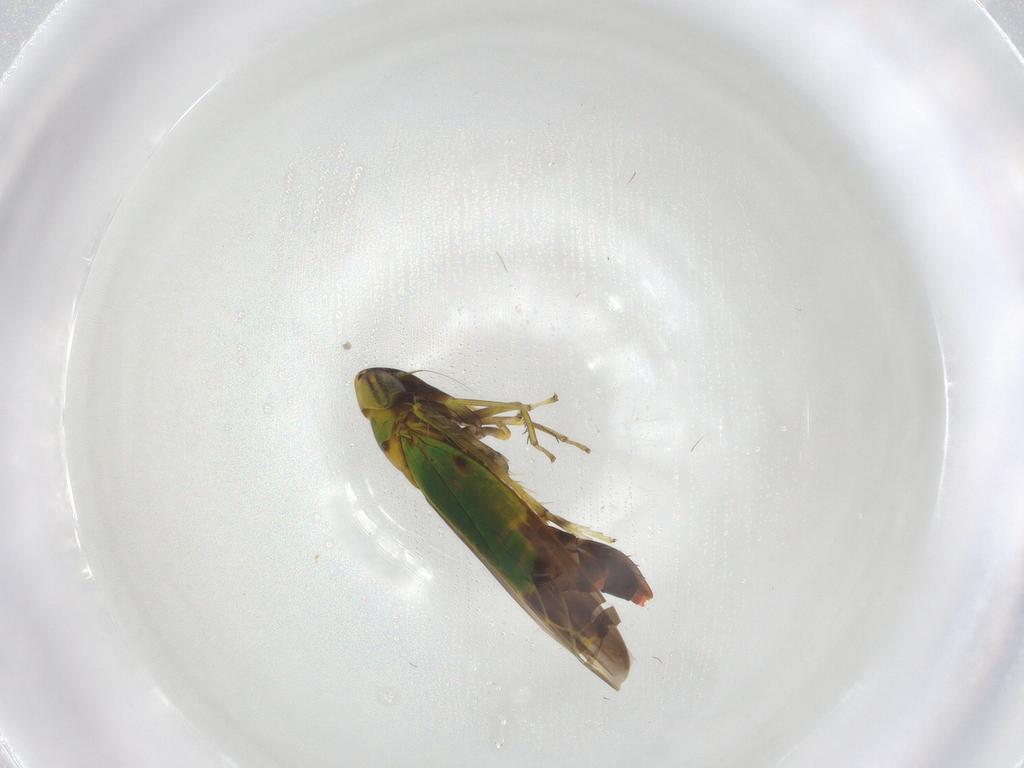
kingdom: Animalia
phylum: Arthropoda
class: Insecta
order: Hemiptera
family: Cicadellidae
